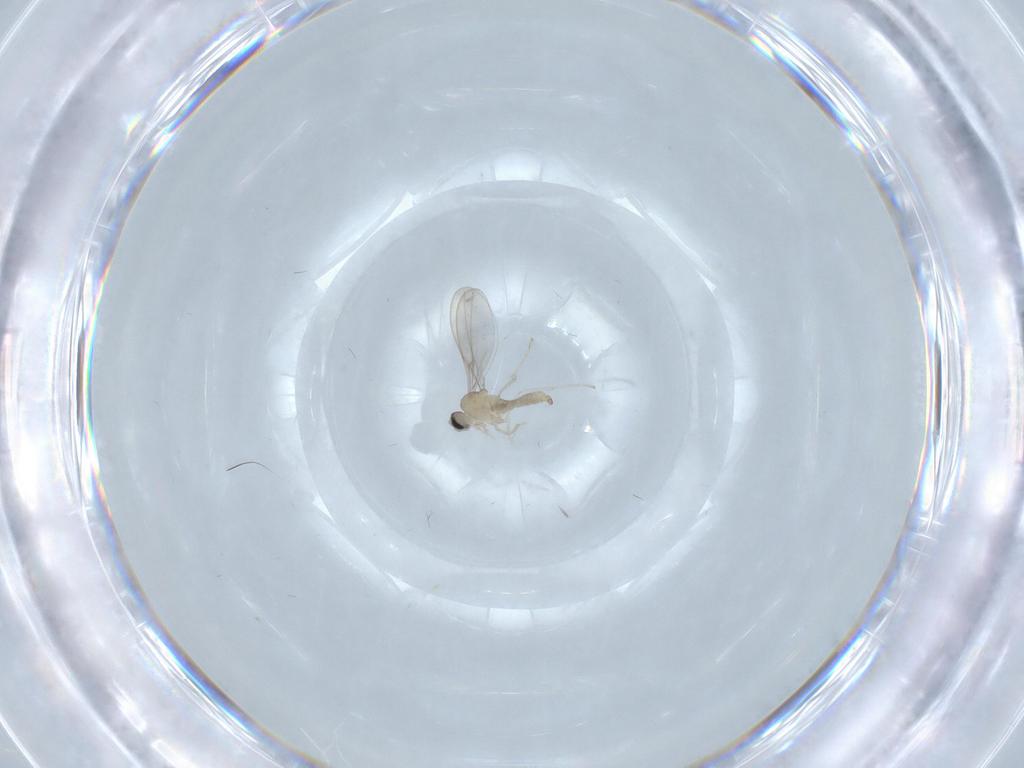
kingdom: Animalia
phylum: Arthropoda
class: Insecta
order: Diptera
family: Cecidomyiidae
